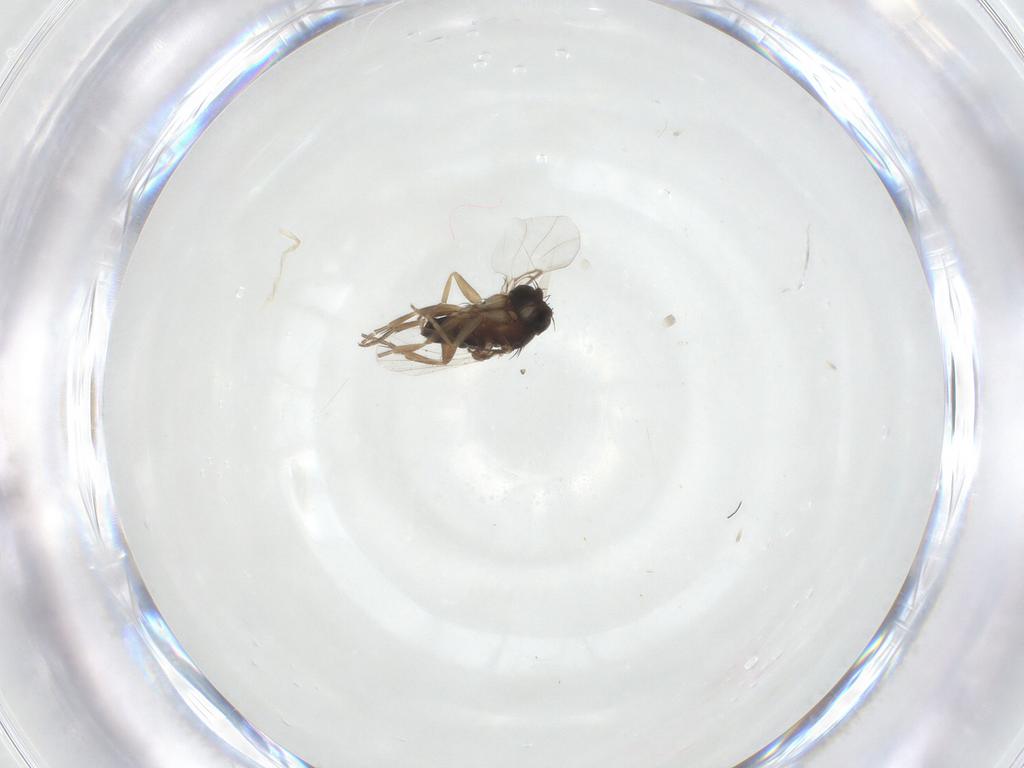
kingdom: Animalia
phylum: Arthropoda
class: Insecta
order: Diptera
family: Phoridae
